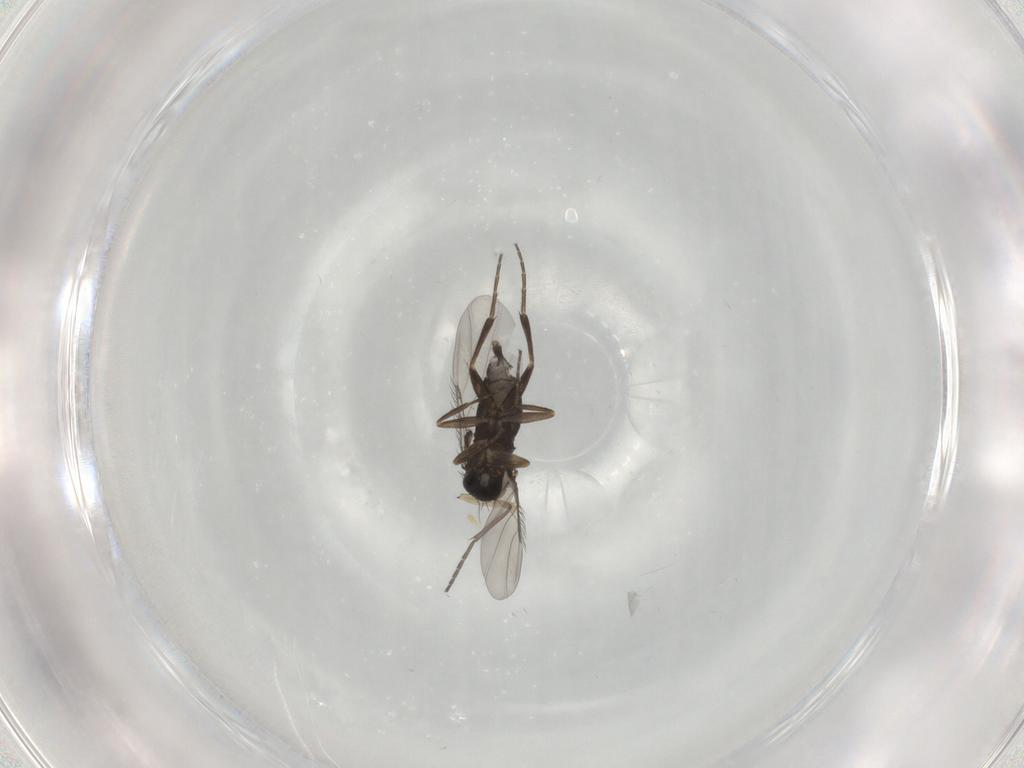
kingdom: Animalia
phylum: Arthropoda
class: Insecta
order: Diptera
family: Phoridae
